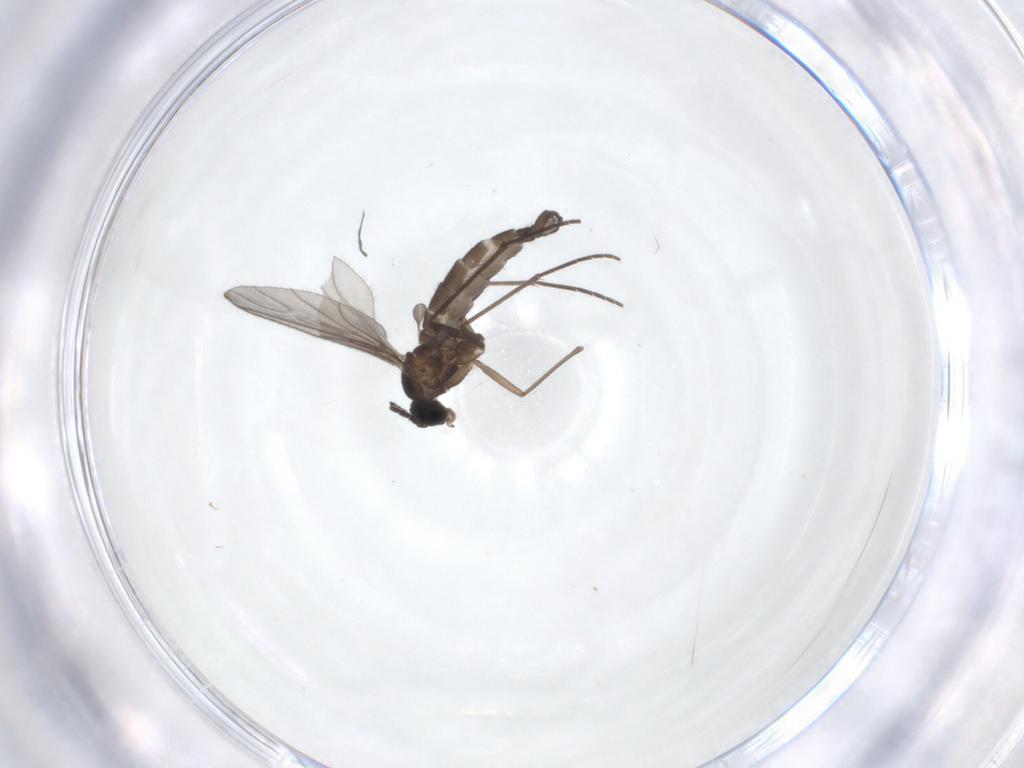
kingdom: Animalia
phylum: Arthropoda
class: Insecta
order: Diptera
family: Sciaridae
